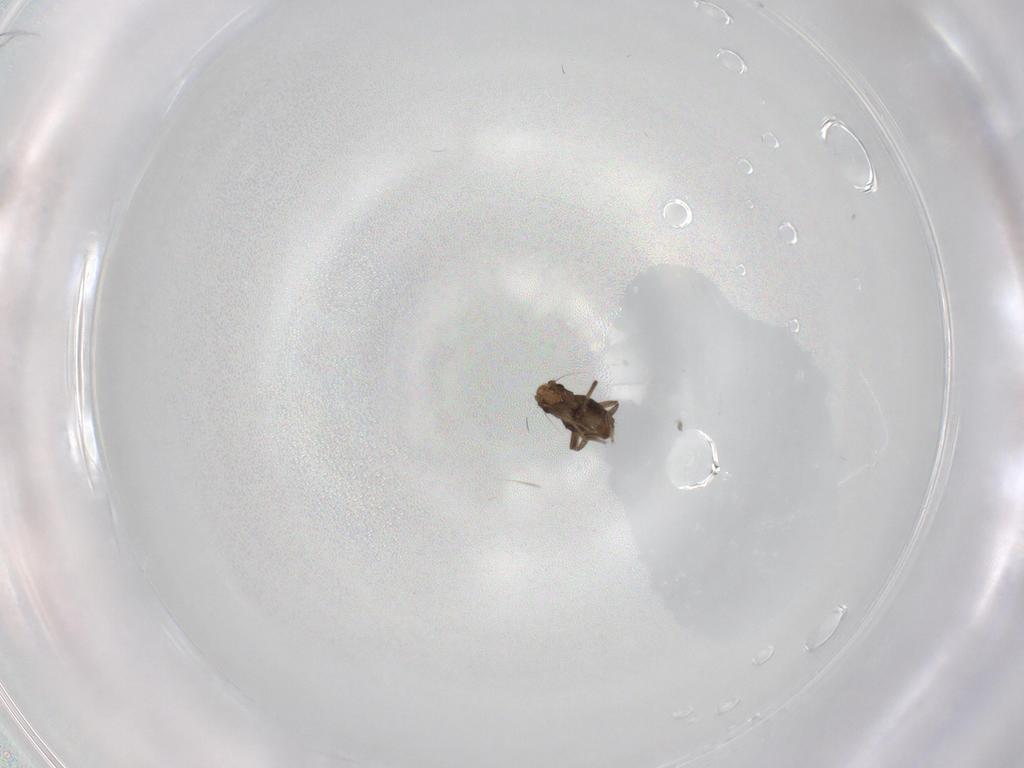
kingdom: Animalia
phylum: Arthropoda
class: Insecta
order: Diptera
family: Phoridae
